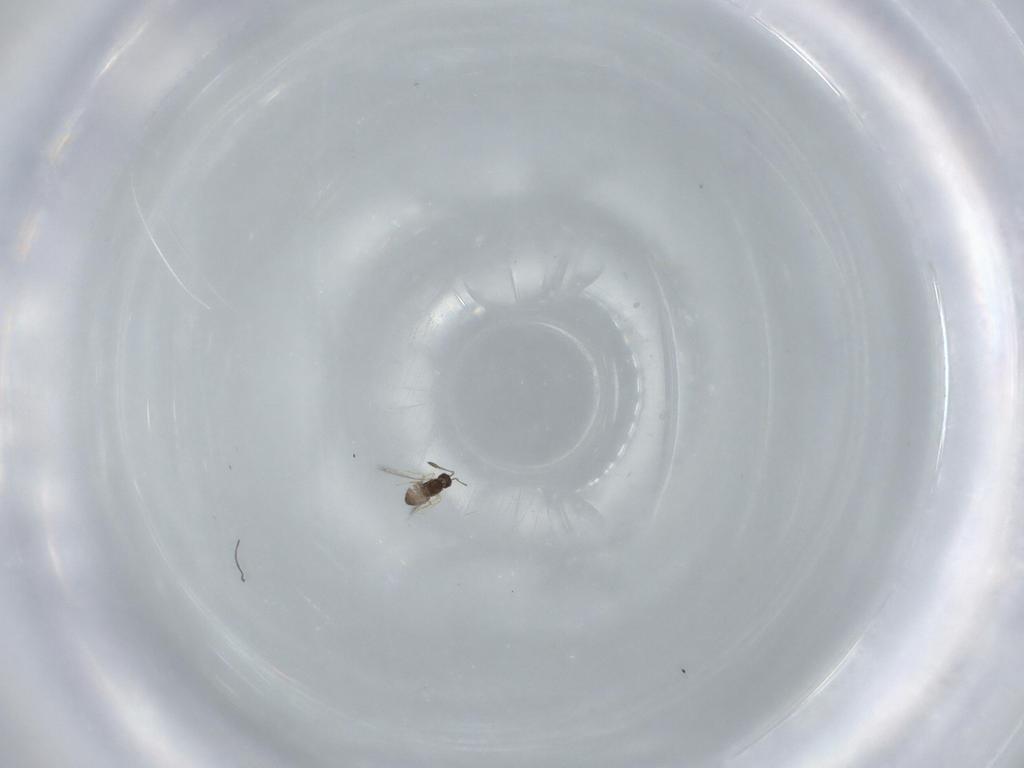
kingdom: Animalia
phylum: Arthropoda
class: Insecta
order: Hymenoptera
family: Mymaridae
